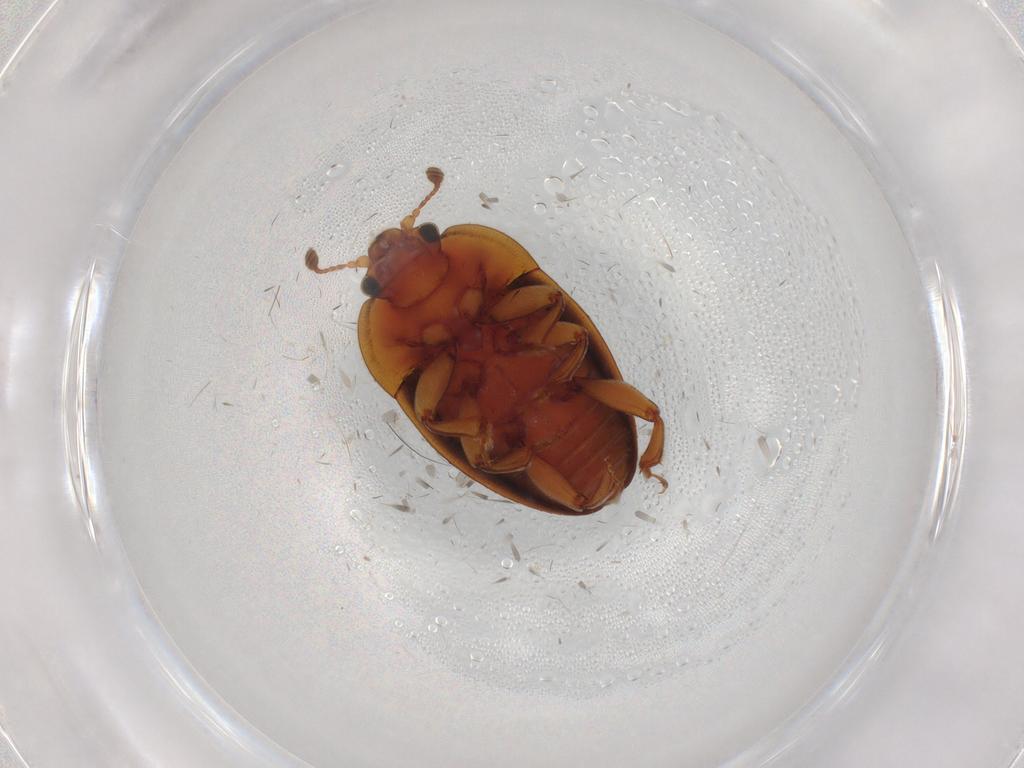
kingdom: Animalia
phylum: Arthropoda
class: Insecta
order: Coleoptera
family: Nitidulidae
